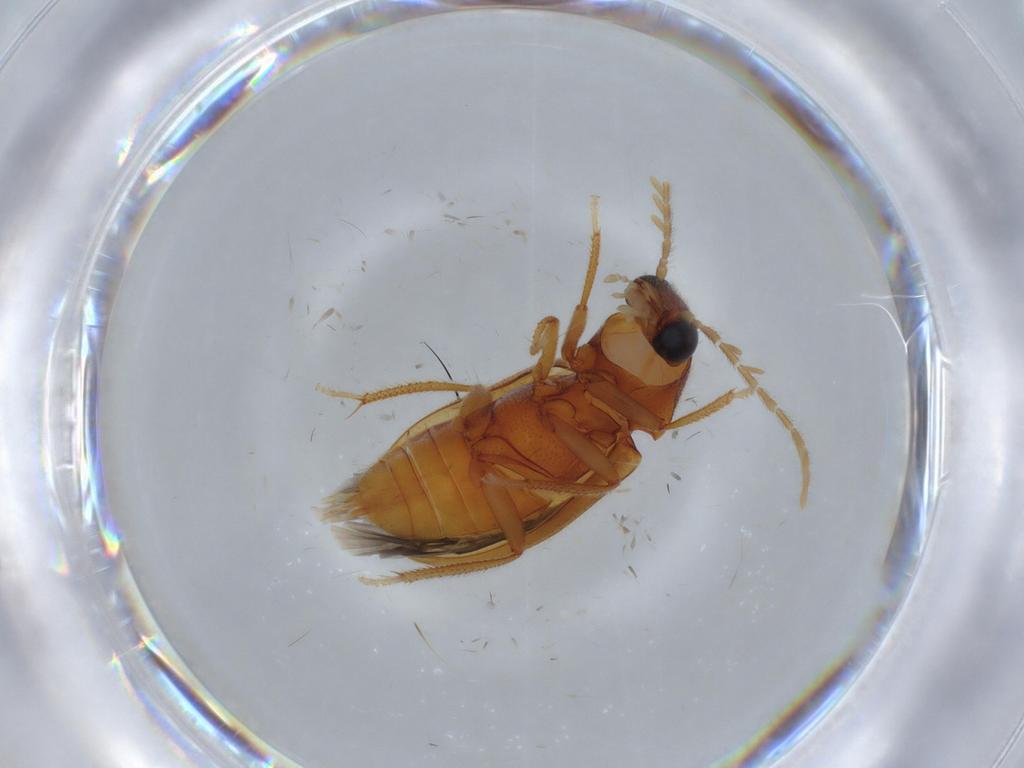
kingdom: Animalia
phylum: Arthropoda
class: Insecta
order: Coleoptera
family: Ptilodactylidae
